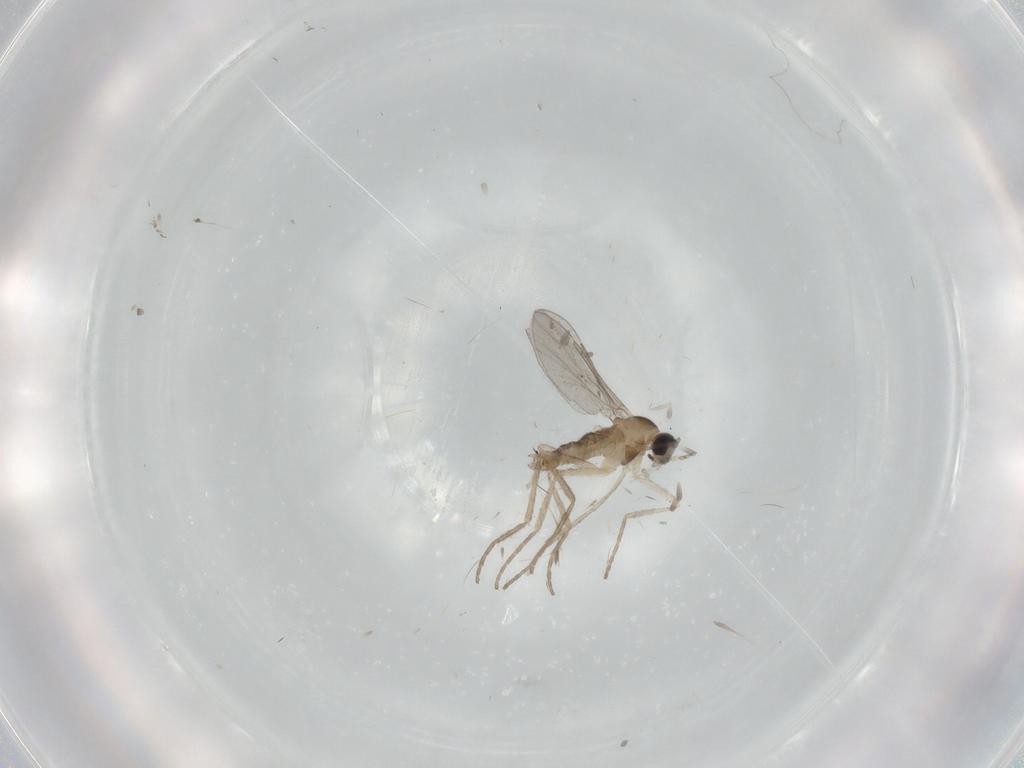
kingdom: Animalia
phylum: Arthropoda
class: Insecta
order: Diptera
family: Cecidomyiidae
